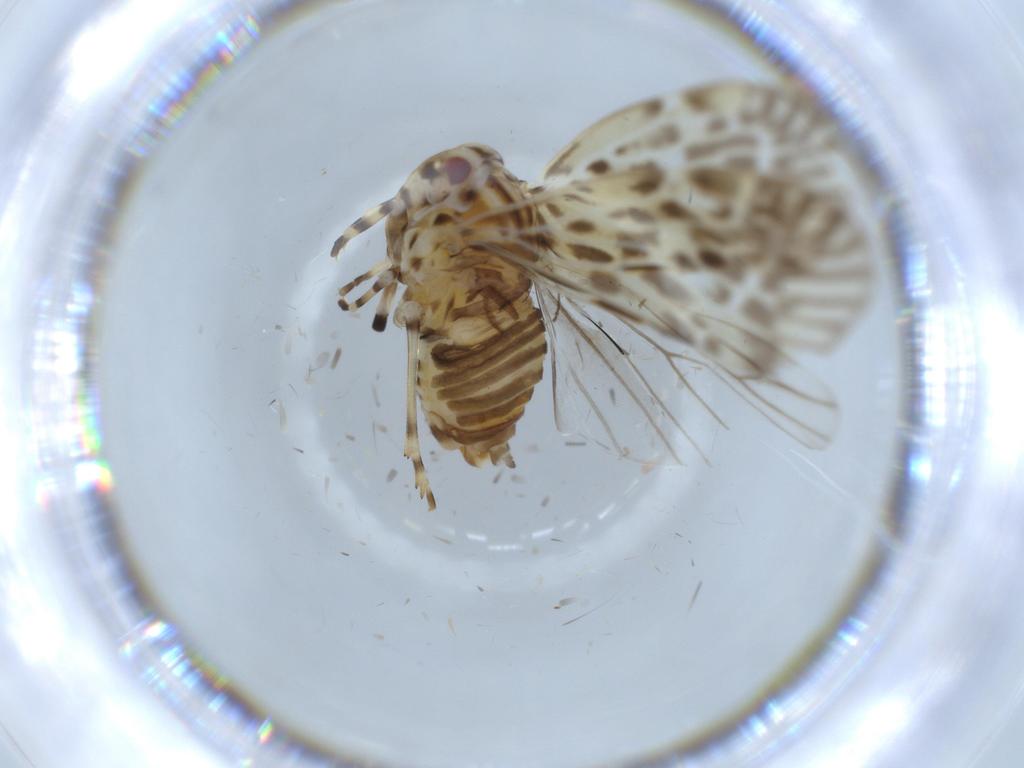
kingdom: Animalia
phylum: Arthropoda
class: Insecta
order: Hemiptera
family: Derbidae
